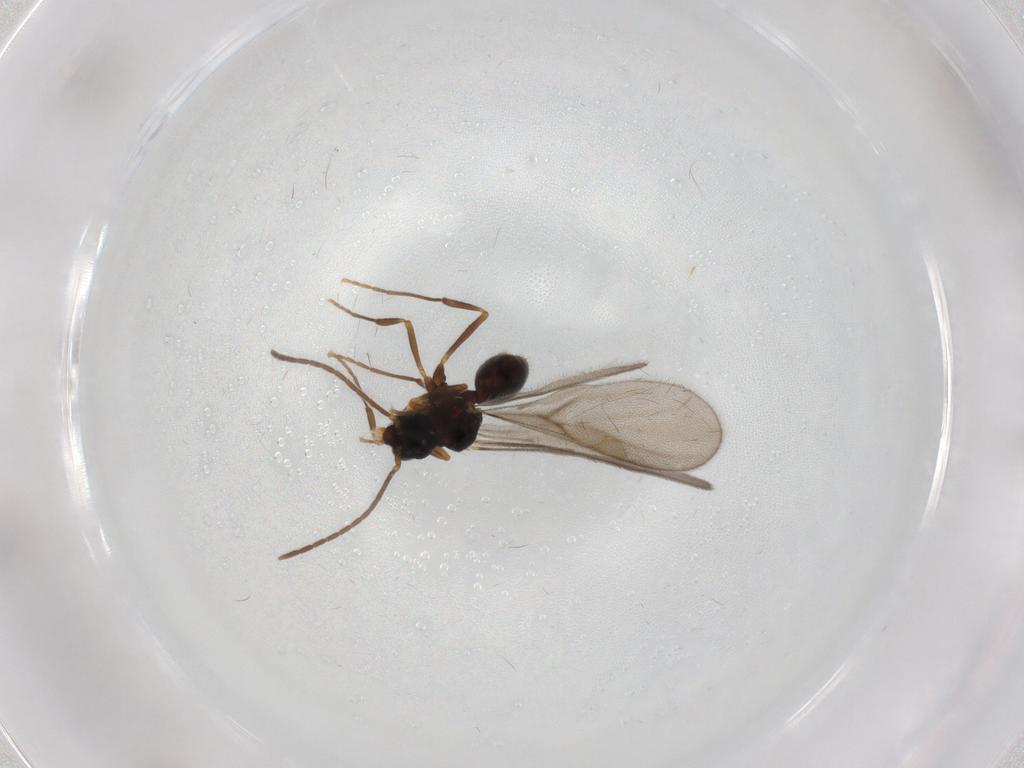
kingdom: Animalia
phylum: Arthropoda
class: Insecta
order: Hymenoptera
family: Formicidae
